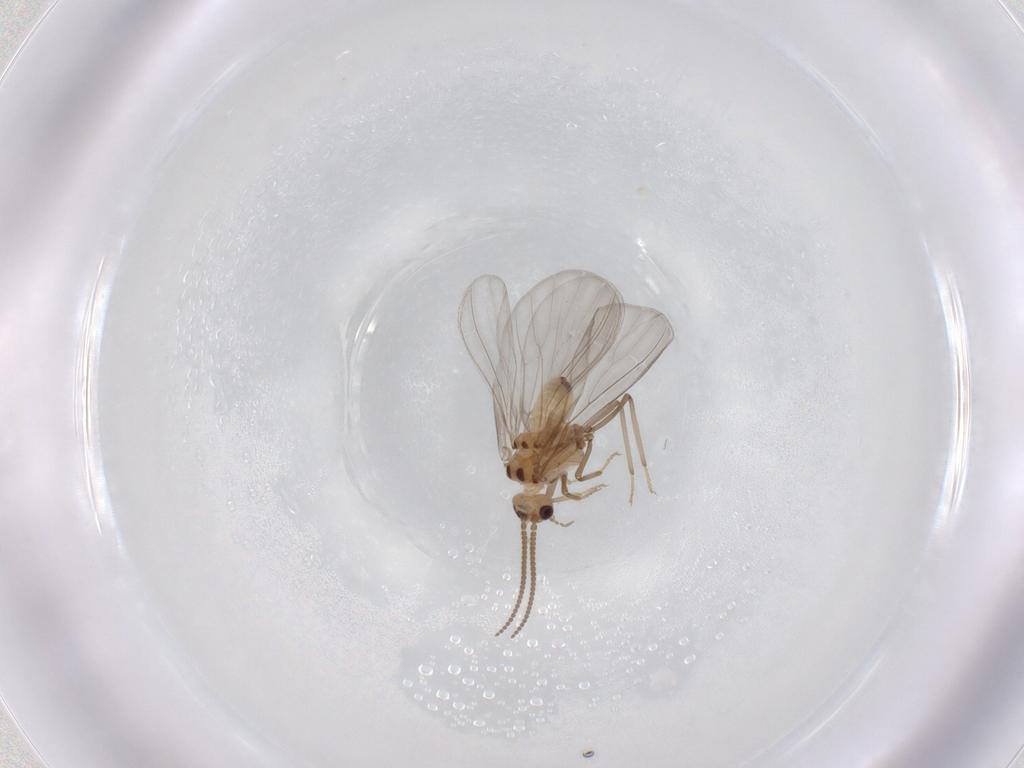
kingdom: Animalia
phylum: Arthropoda
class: Insecta
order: Neuroptera
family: Coniopterygidae
